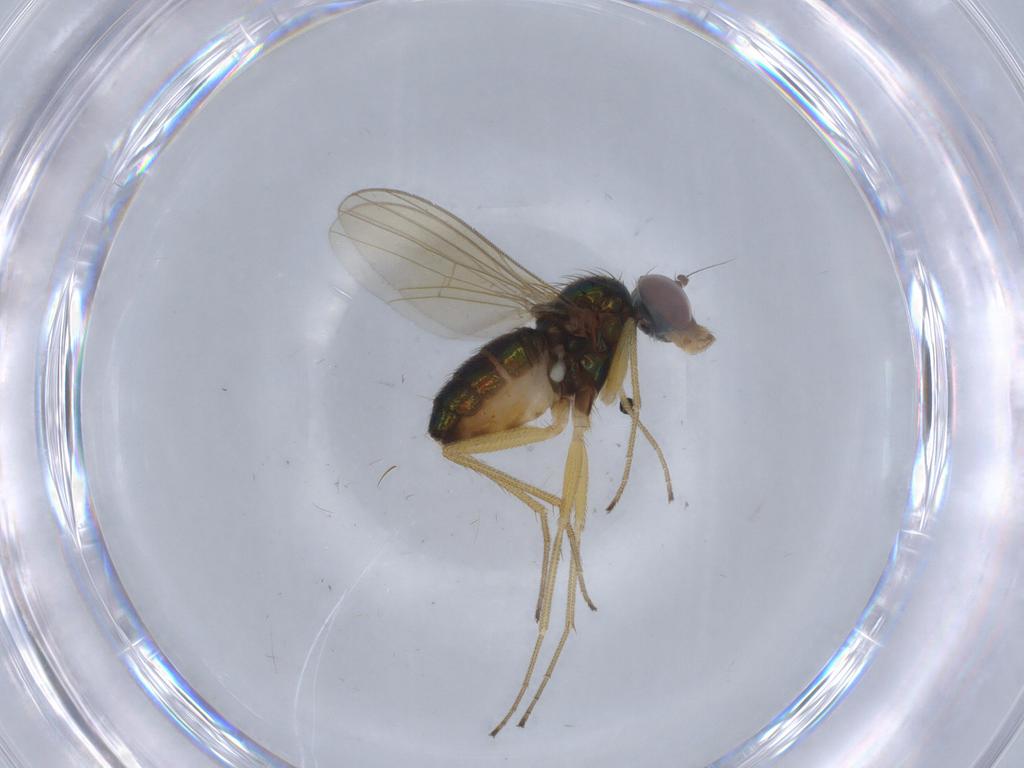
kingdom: Animalia
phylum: Arthropoda
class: Insecta
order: Diptera
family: Dolichopodidae
